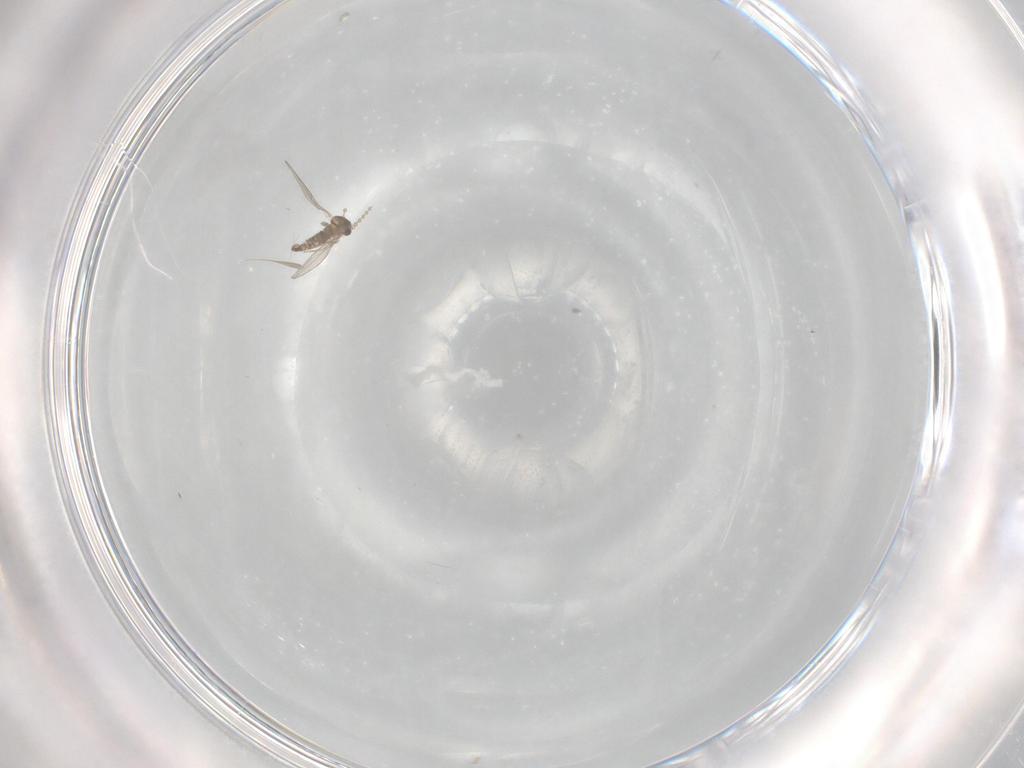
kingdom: Animalia
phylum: Arthropoda
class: Insecta
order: Diptera
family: Cecidomyiidae
